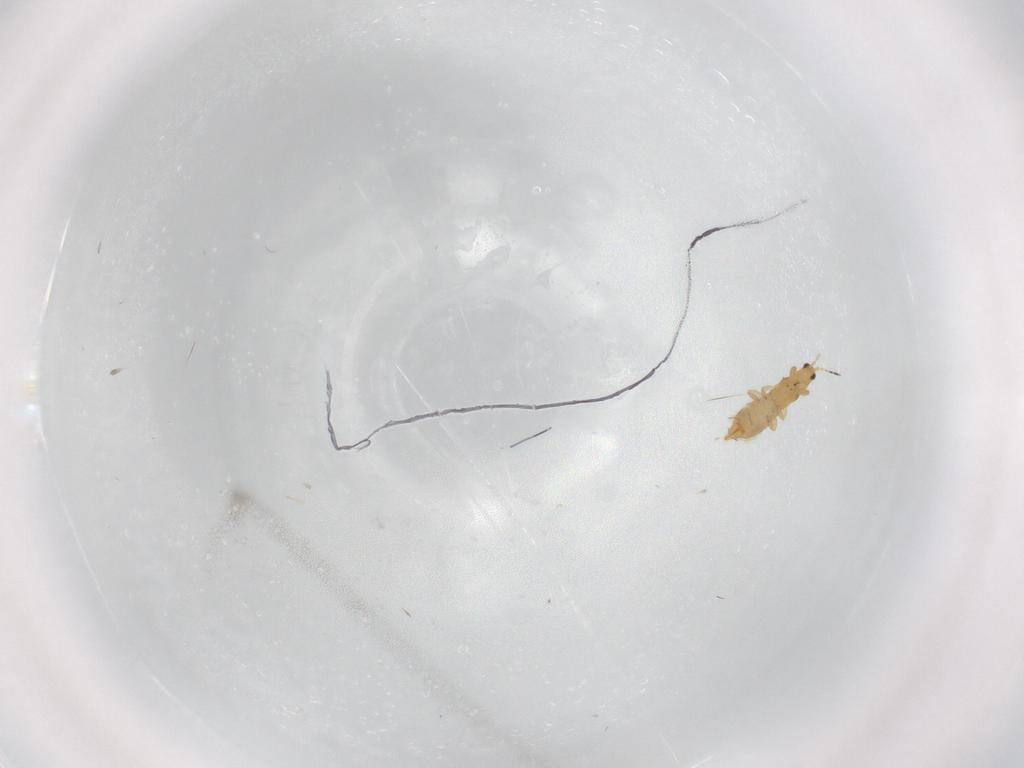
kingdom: Animalia
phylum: Arthropoda
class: Insecta
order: Thysanoptera
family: Thripidae
